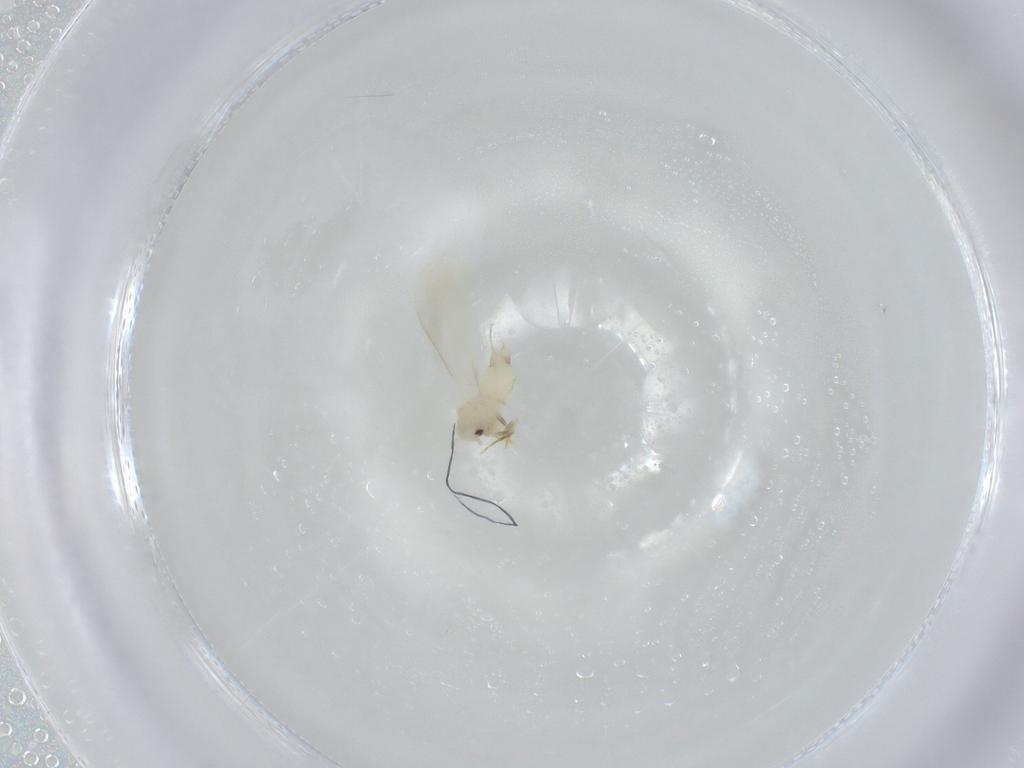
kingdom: Animalia
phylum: Arthropoda
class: Insecta
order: Hemiptera
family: Aleyrodidae
